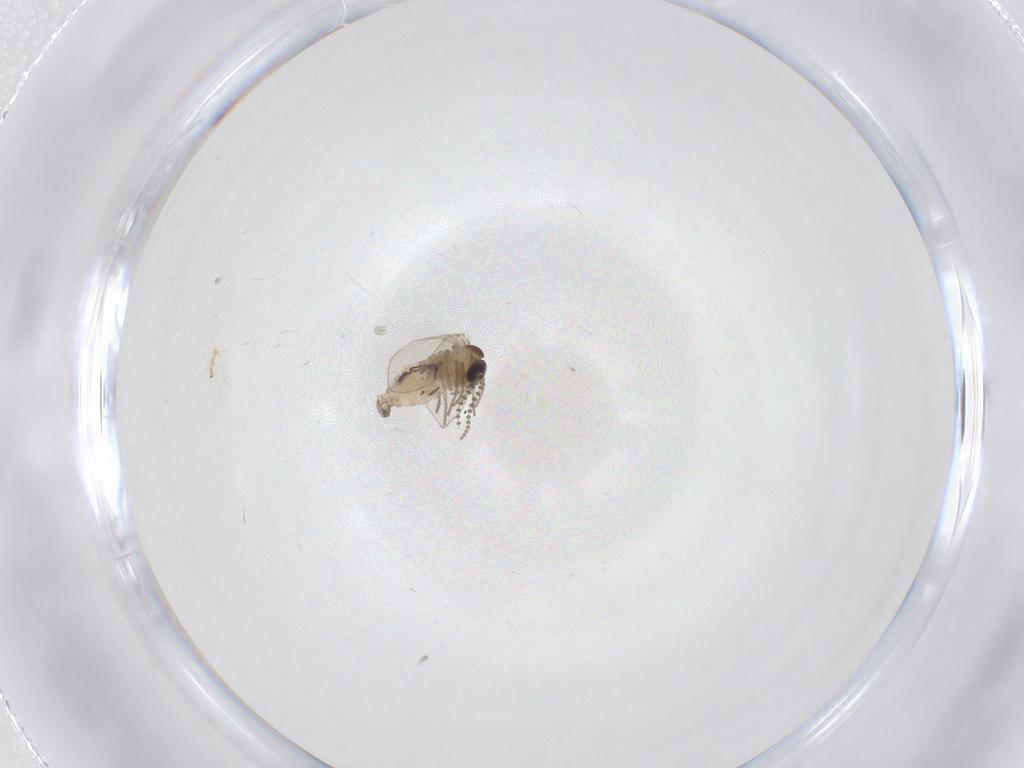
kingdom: Animalia
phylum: Arthropoda
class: Insecta
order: Diptera
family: Psychodidae
